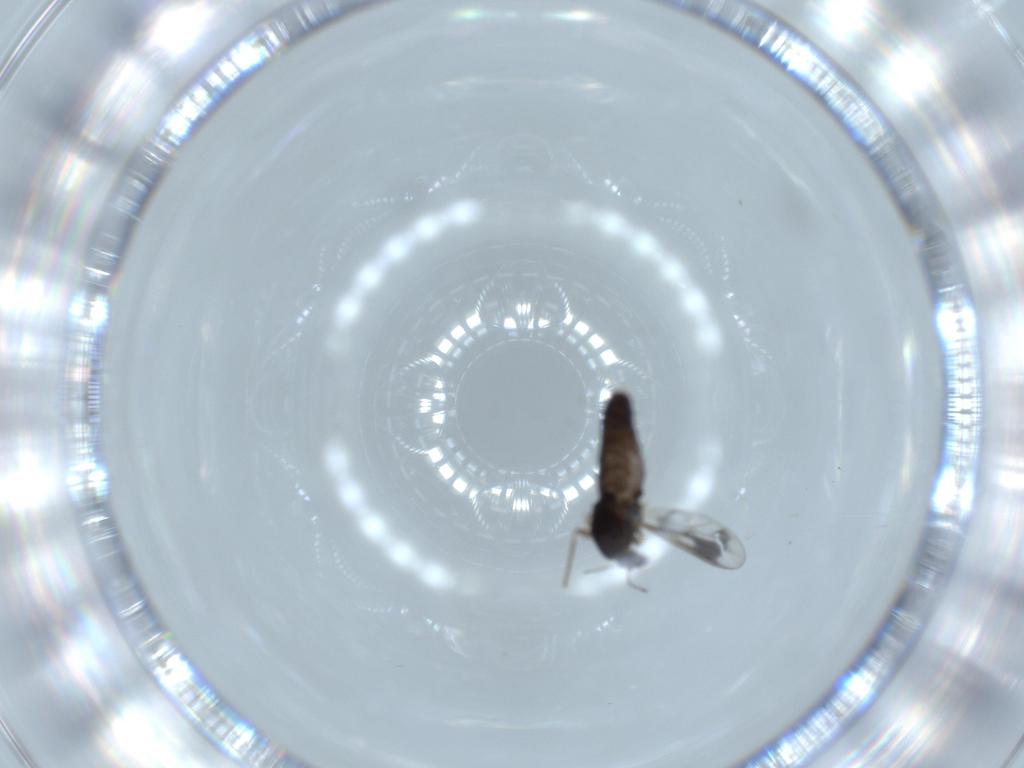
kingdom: Animalia
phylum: Arthropoda
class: Insecta
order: Diptera
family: Chironomidae
